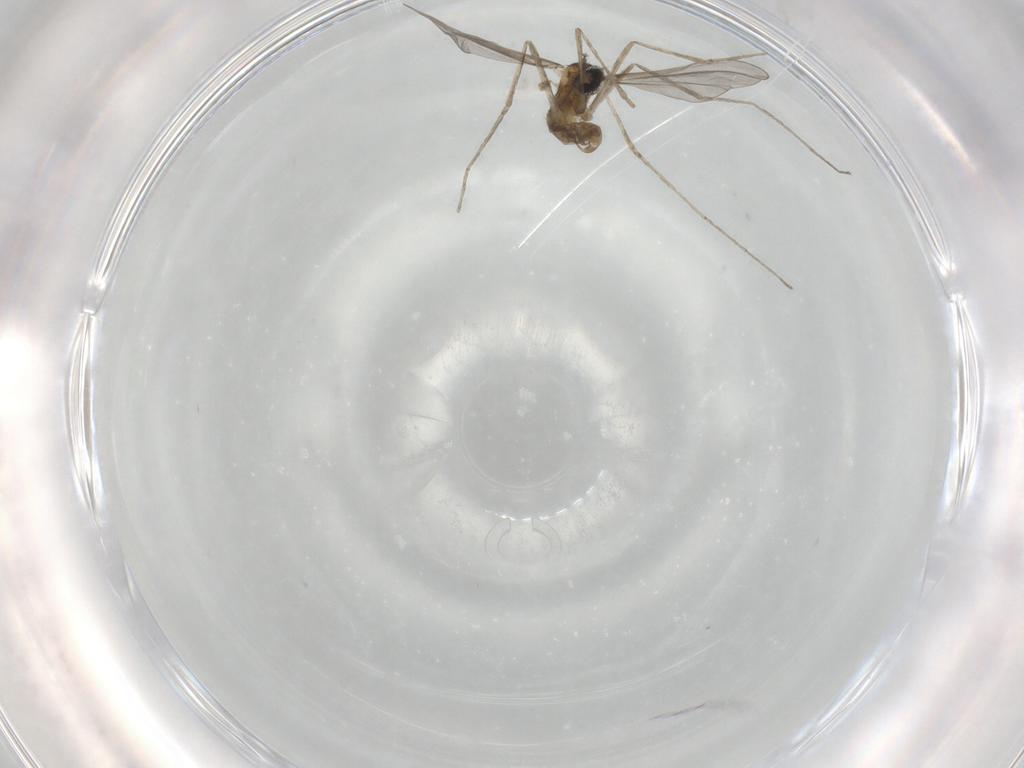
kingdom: Animalia
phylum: Arthropoda
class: Insecta
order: Diptera
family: Cecidomyiidae
